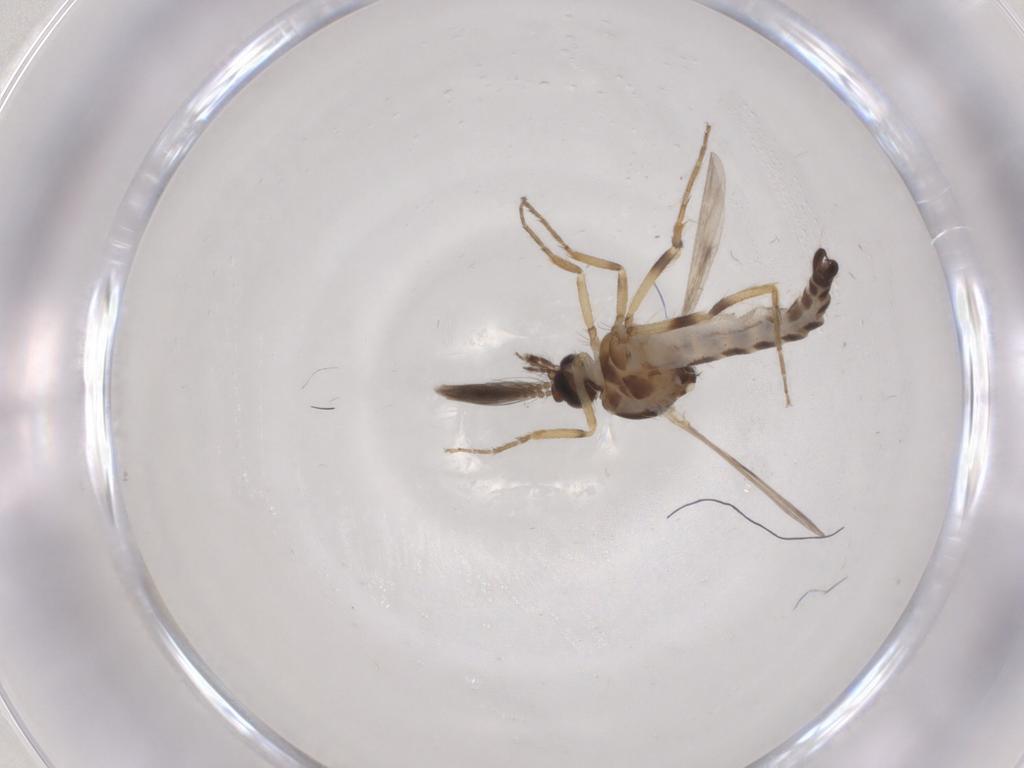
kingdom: Animalia
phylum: Arthropoda
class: Insecta
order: Diptera
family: Ceratopogonidae
